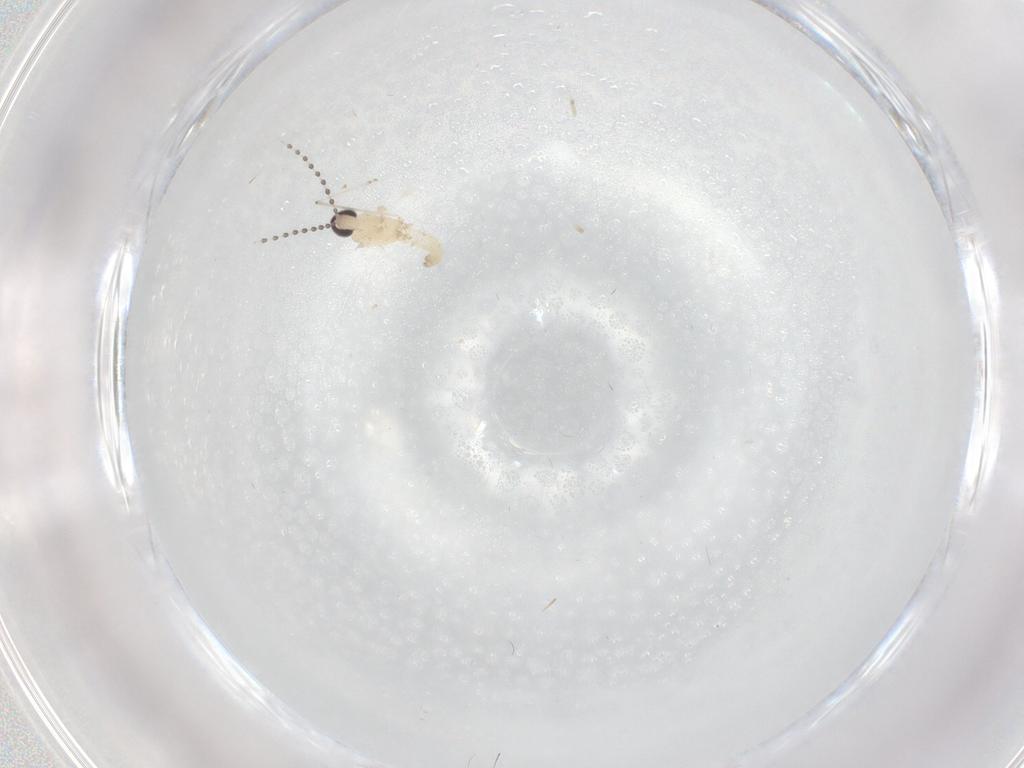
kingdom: Animalia
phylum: Arthropoda
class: Insecta
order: Diptera
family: Cecidomyiidae
